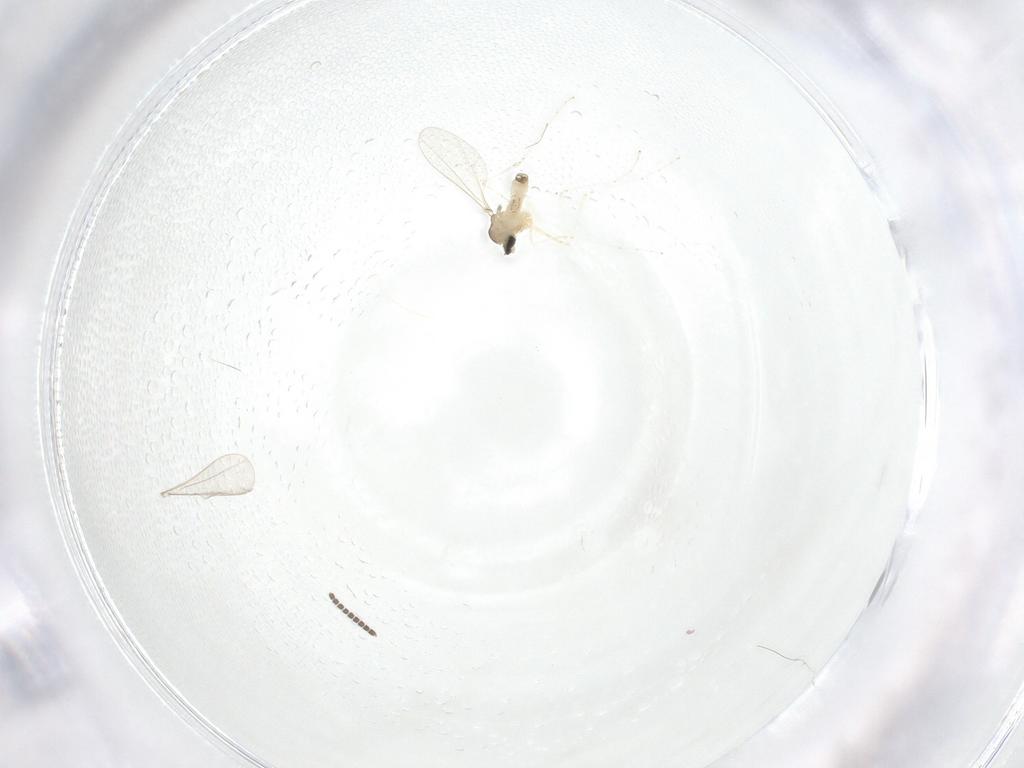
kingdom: Animalia
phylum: Arthropoda
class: Insecta
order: Diptera
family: Cecidomyiidae
